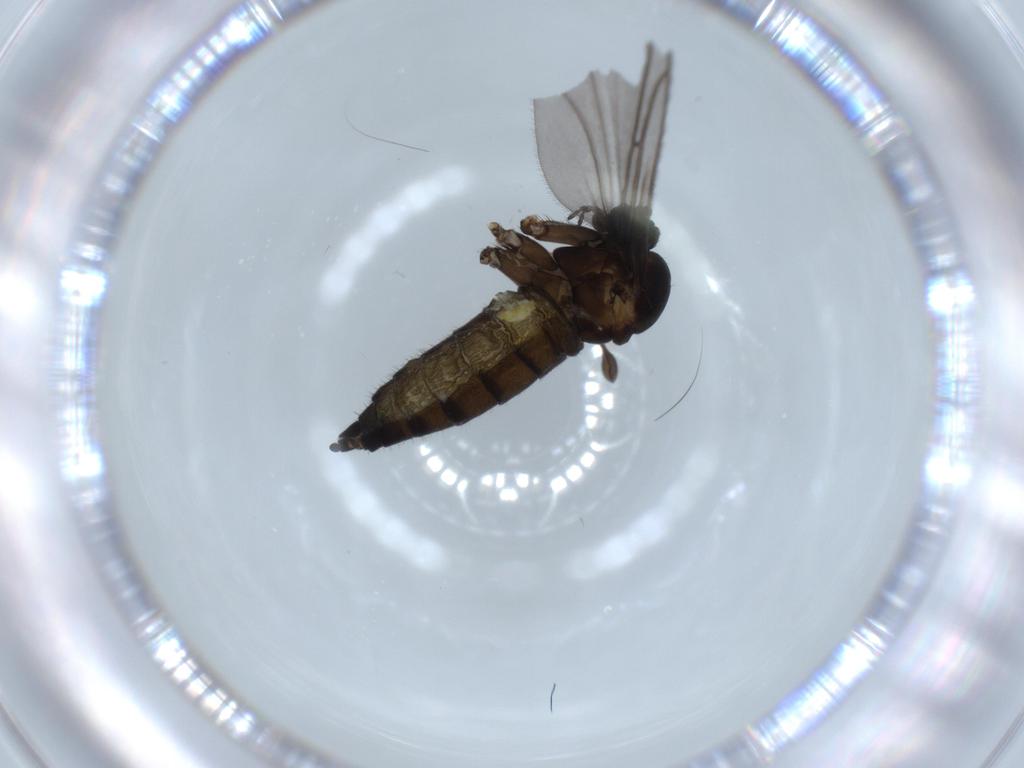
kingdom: Animalia
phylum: Arthropoda
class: Insecta
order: Diptera
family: Sciaridae
